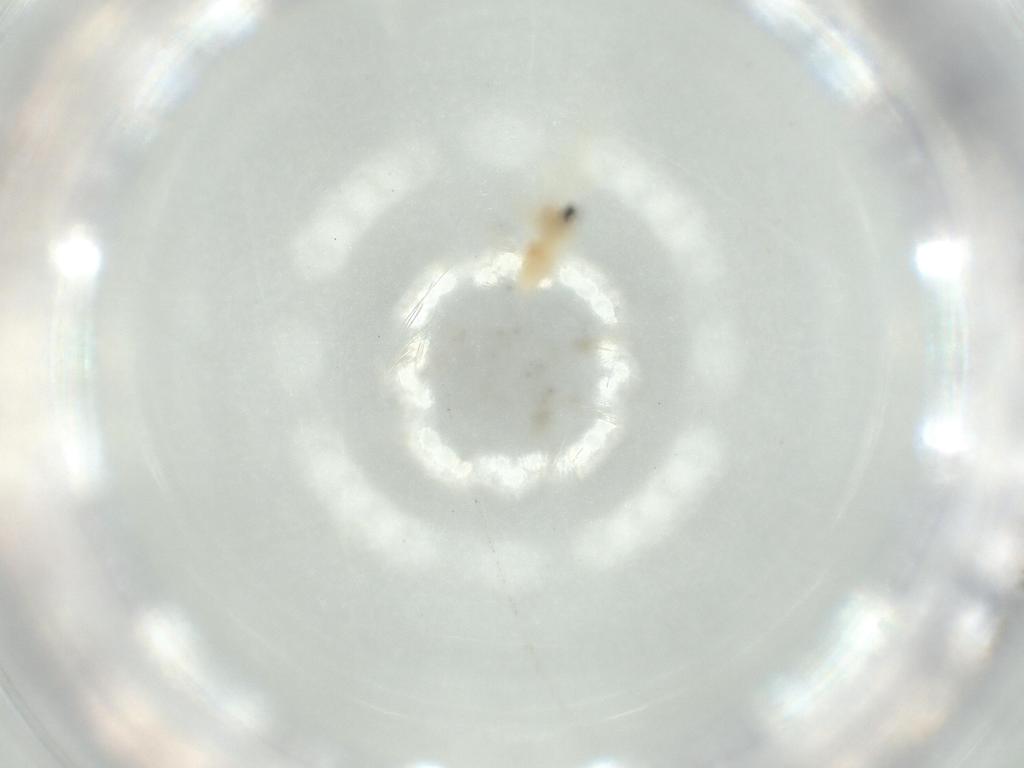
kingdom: Animalia
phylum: Arthropoda
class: Insecta
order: Diptera
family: Cecidomyiidae
